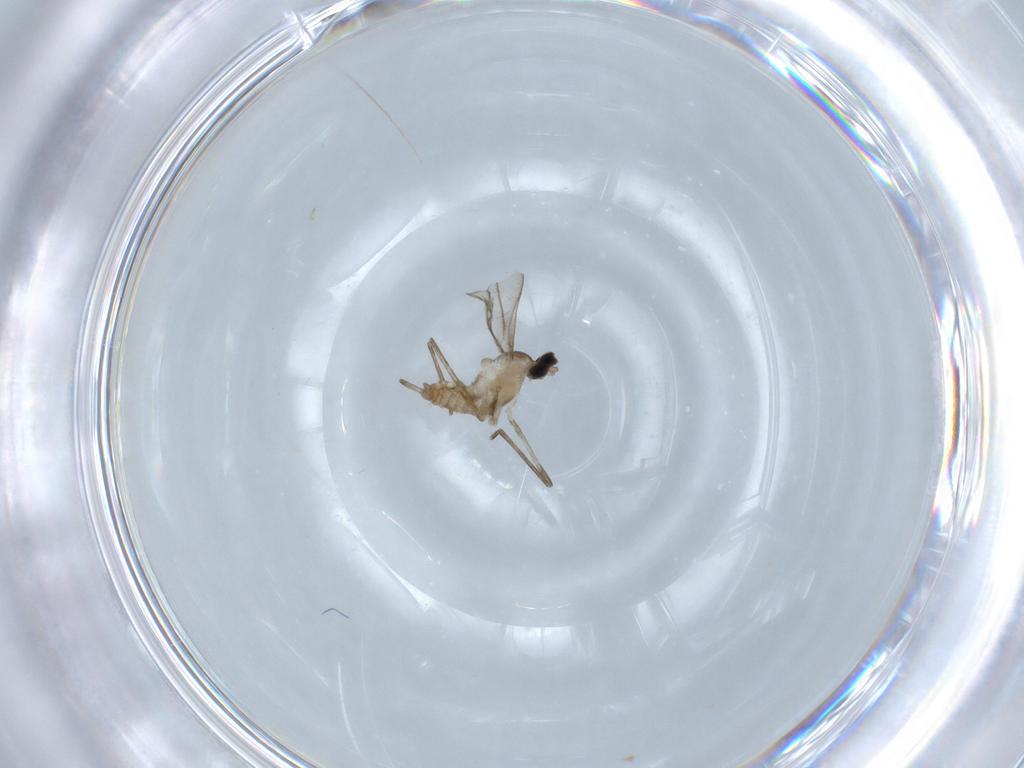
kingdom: Animalia
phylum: Arthropoda
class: Insecta
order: Diptera
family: Cecidomyiidae
